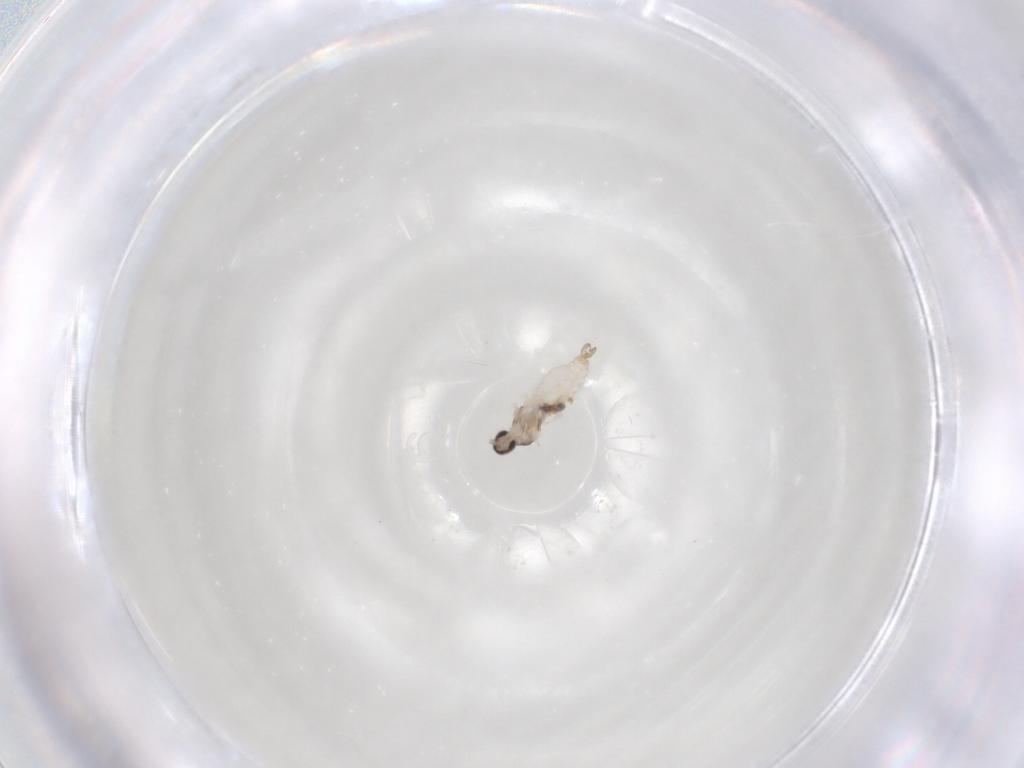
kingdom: Animalia
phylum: Arthropoda
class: Insecta
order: Diptera
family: Cecidomyiidae
